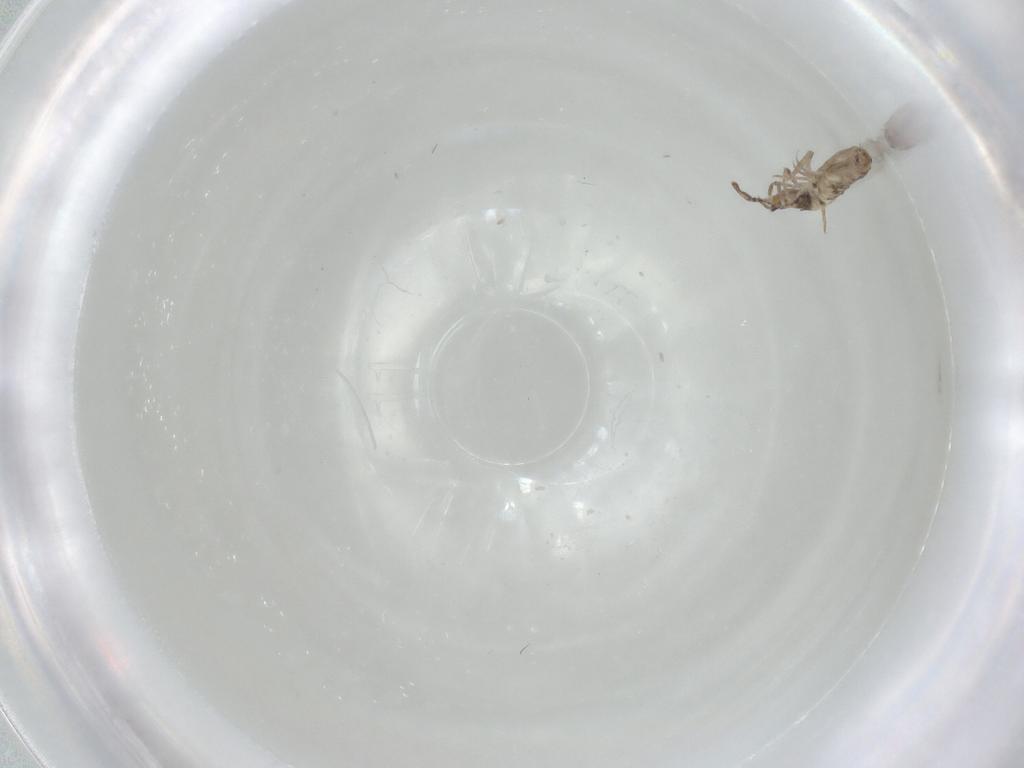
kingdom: Animalia
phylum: Arthropoda
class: Collembola
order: Entomobryomorpha
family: Entomobryidae
